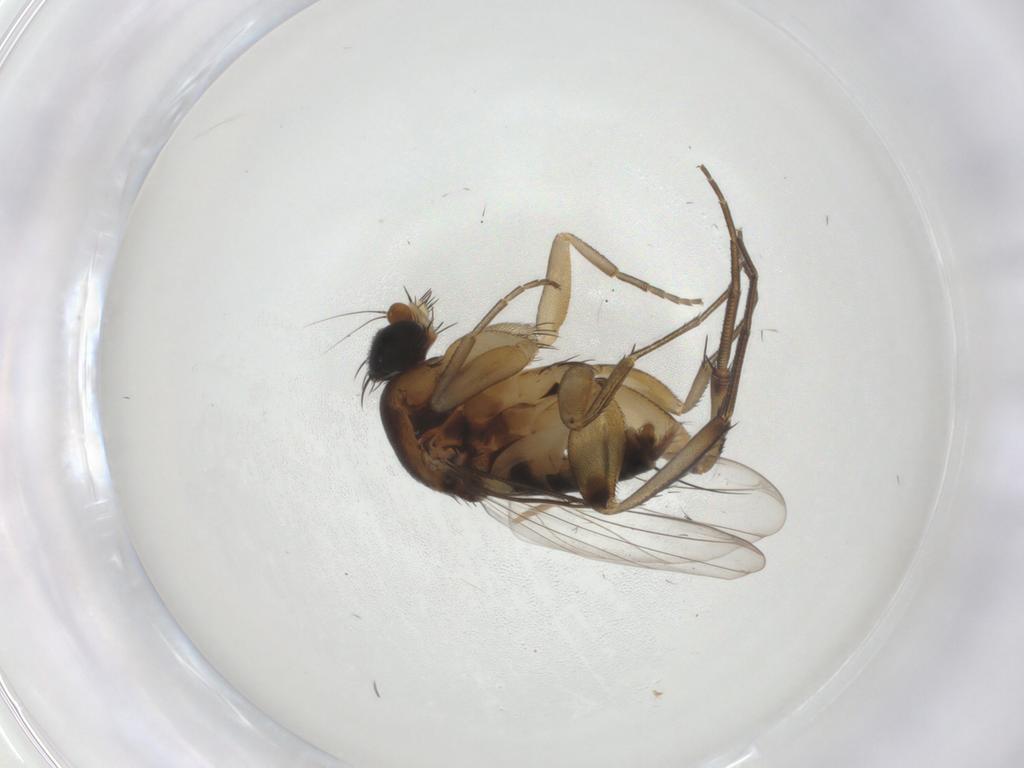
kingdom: Animalia
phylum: Arthropoda
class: Insecta
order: Diptera
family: Phoridae
